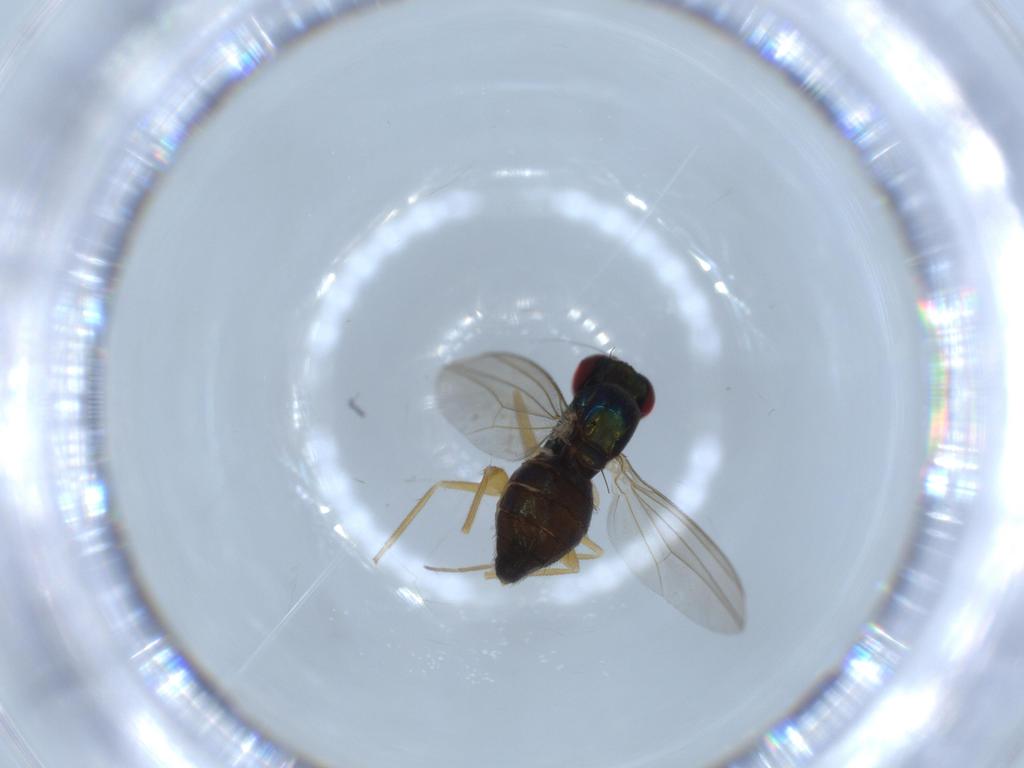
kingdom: Animalia
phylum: Arthropoda
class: Insecta
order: Diptera
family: Dolichopodidae
